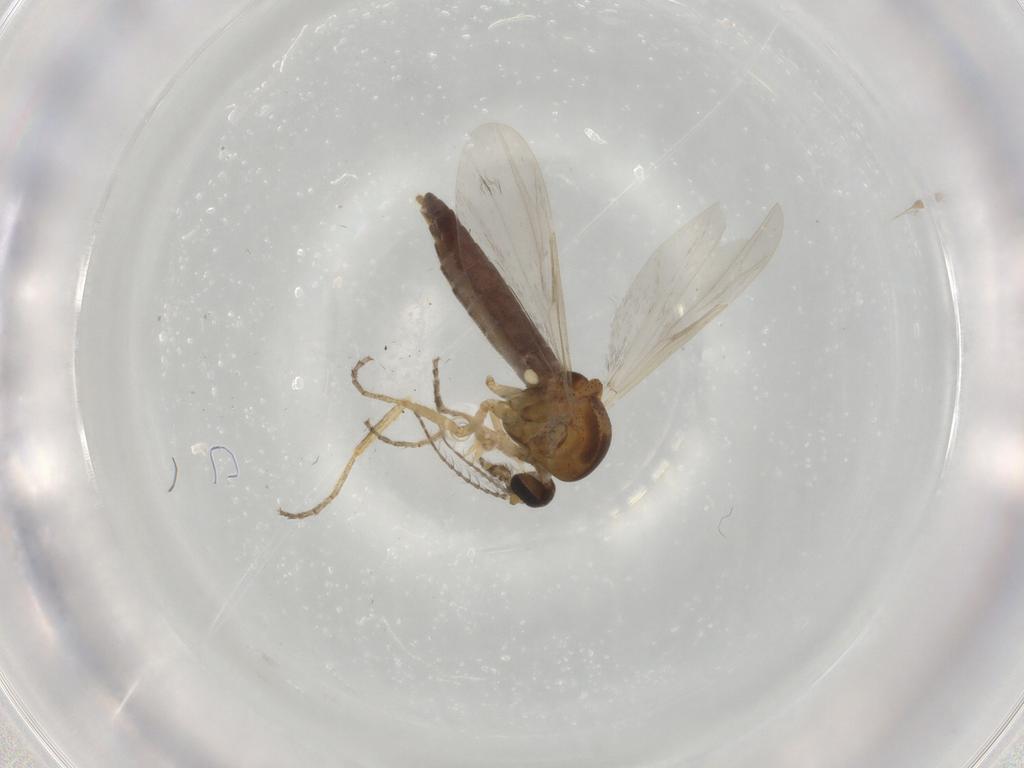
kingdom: Animalia
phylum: Arthropoda
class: Insecta
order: Diptera
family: Ceratopogonidae
